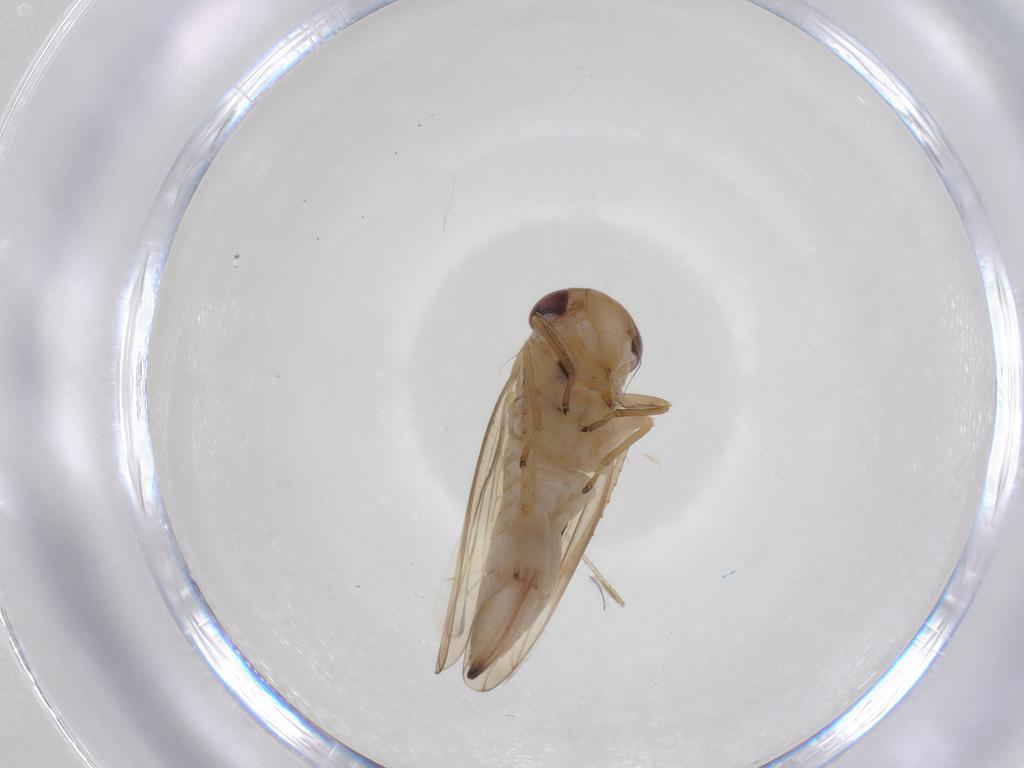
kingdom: Animalia
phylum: Arthropoda
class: Insecta
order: Hemiptera
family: Cicadellidae
